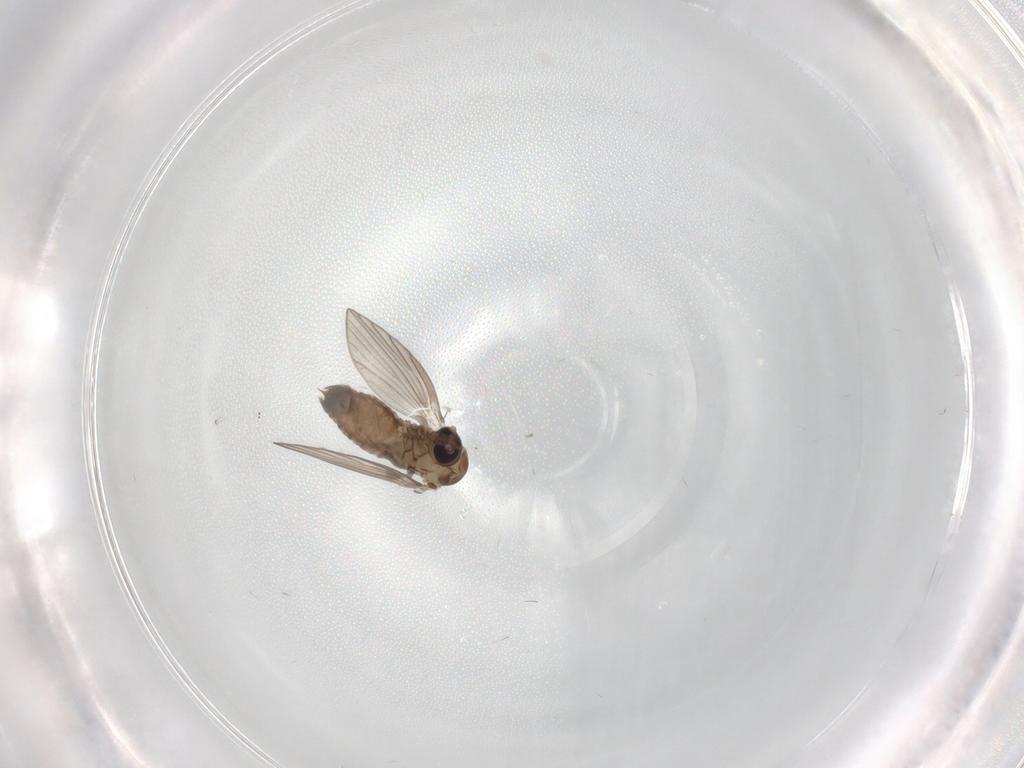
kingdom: Animalia
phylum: Arthropoda
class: Insecta
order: Diptera
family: Psychodidae
